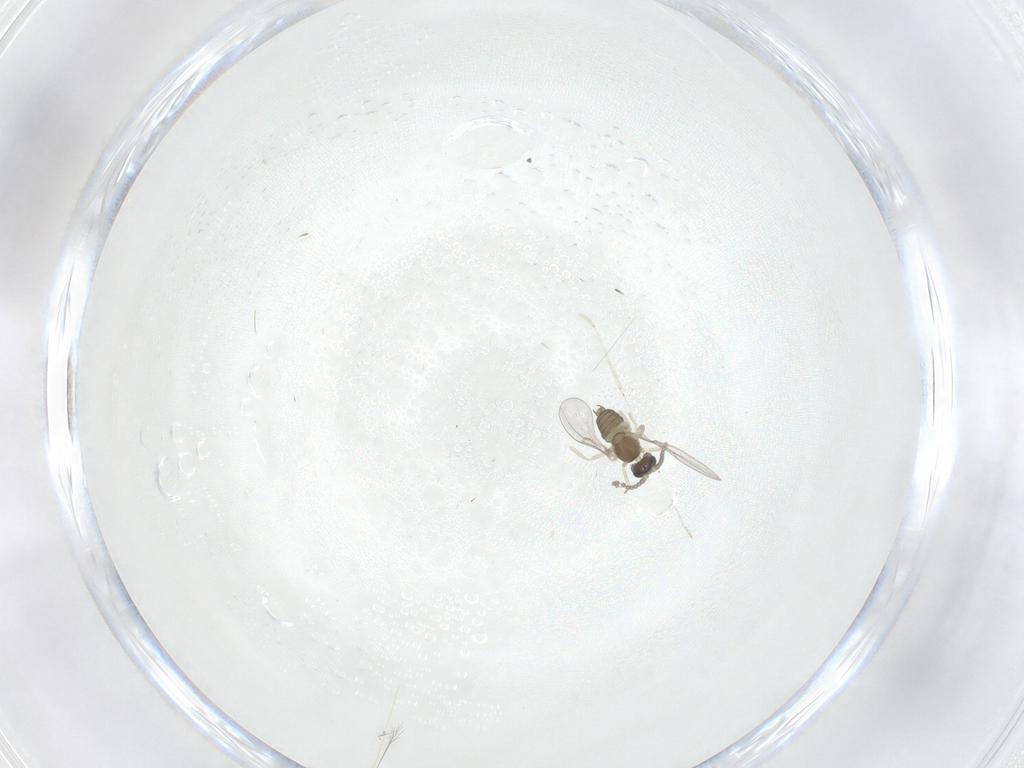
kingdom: Animalia
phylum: Arthropoda
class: Insecta
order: Diptera
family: Cecidomyiidae
